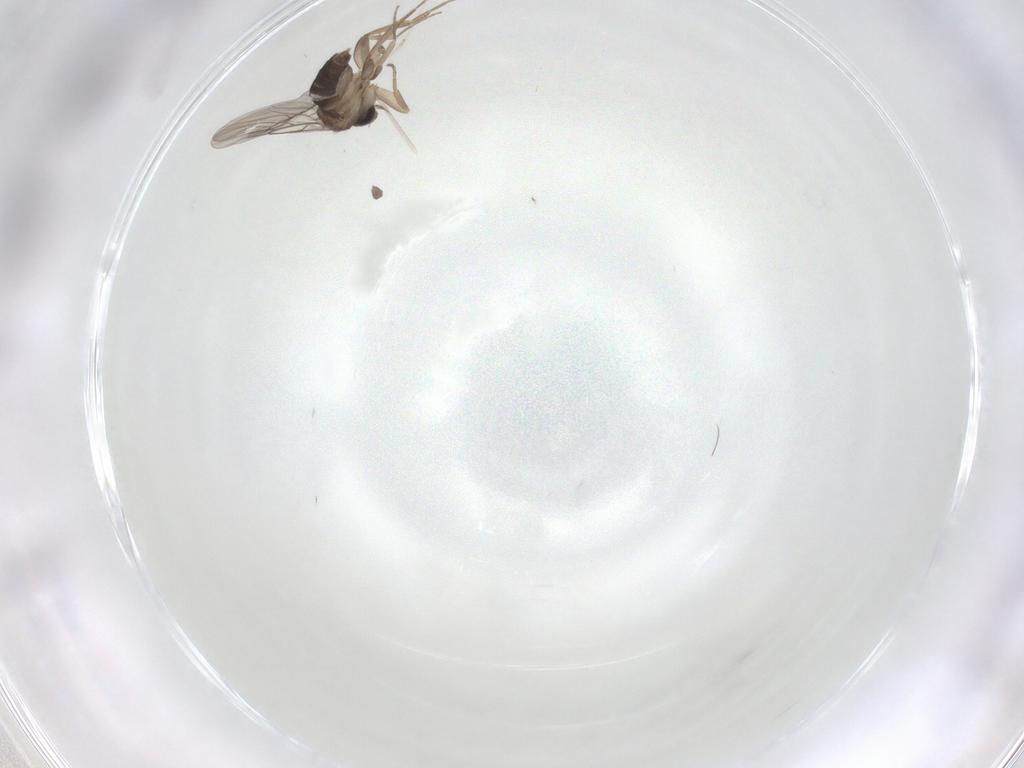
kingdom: Animalia
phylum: Arthropoda
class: Insecta
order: Diptera
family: Phoridae
